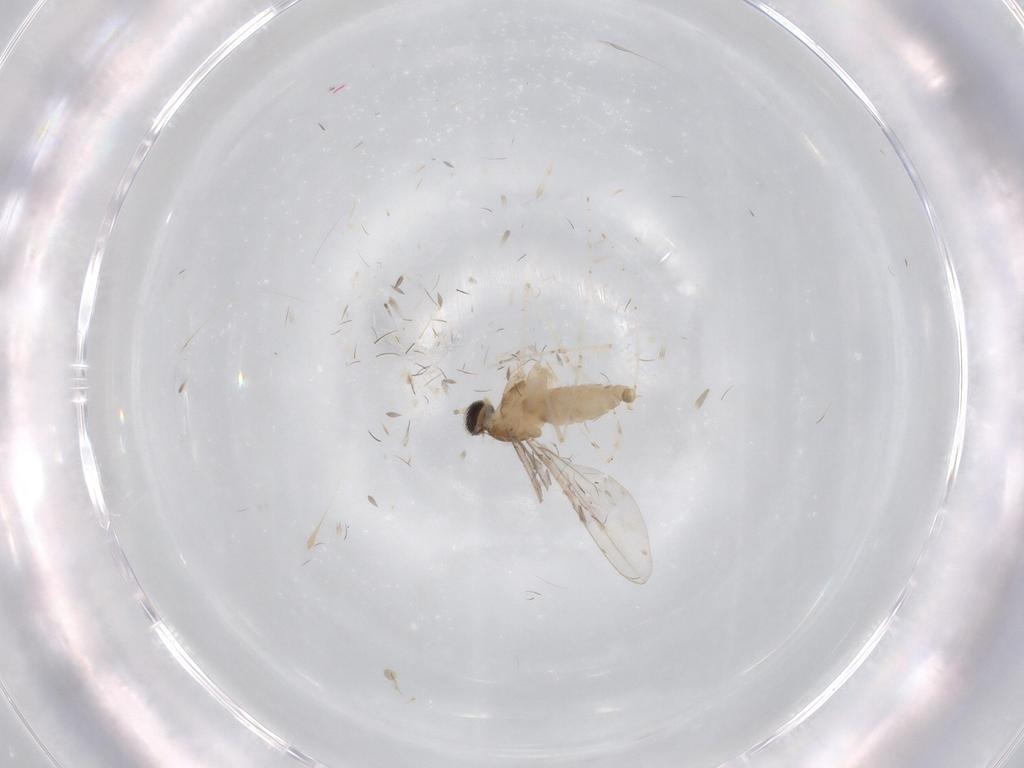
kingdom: Animalia
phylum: Arthropoda
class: Insecta
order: Diptera
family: Cecidomyiidae
